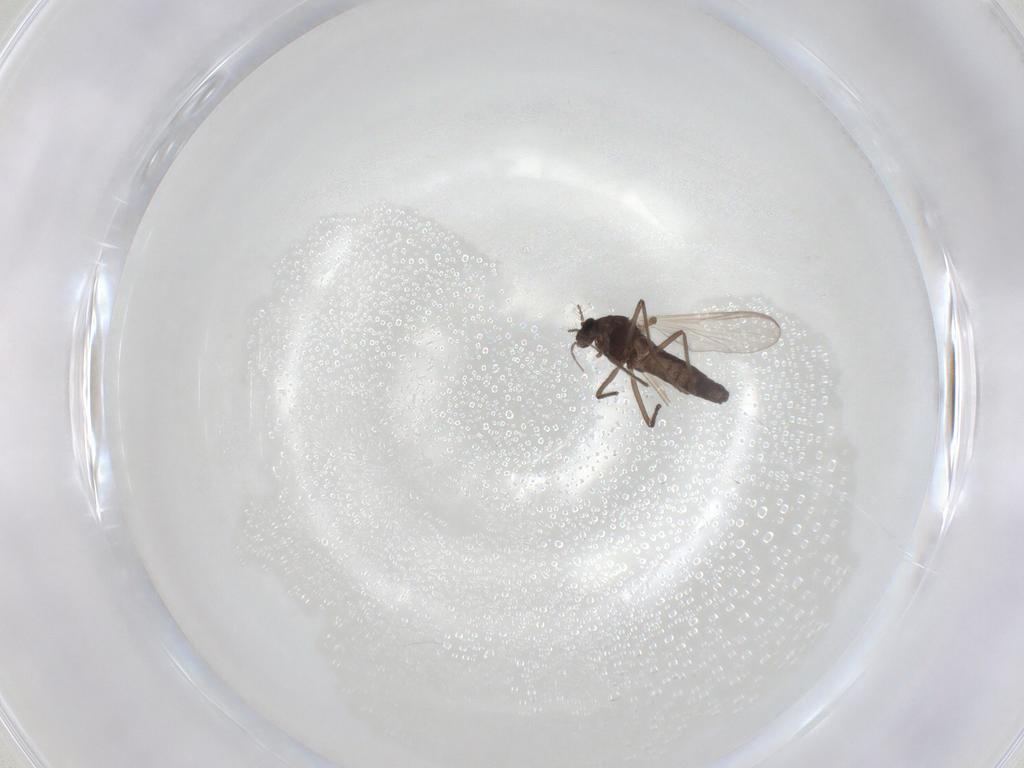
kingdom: Animalia
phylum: Arthropoda
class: Insecta
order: Diptera
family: Chironomidae
